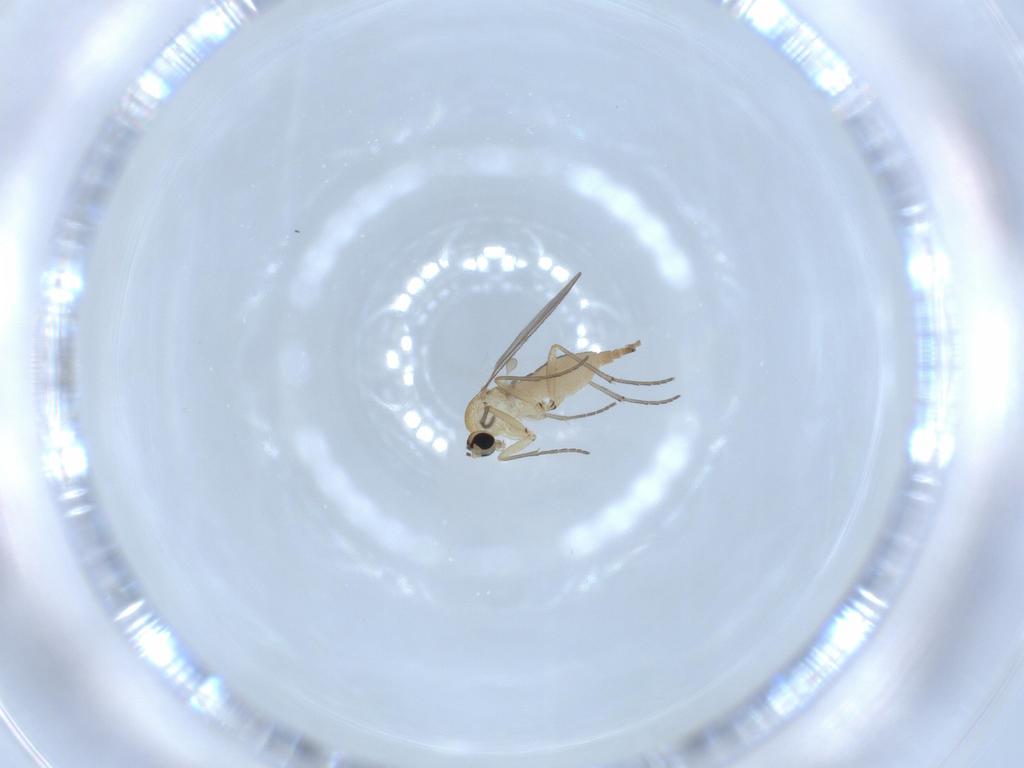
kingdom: Animalia
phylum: Arthropoda
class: Insecta
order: Diptera
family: Sciaridae
